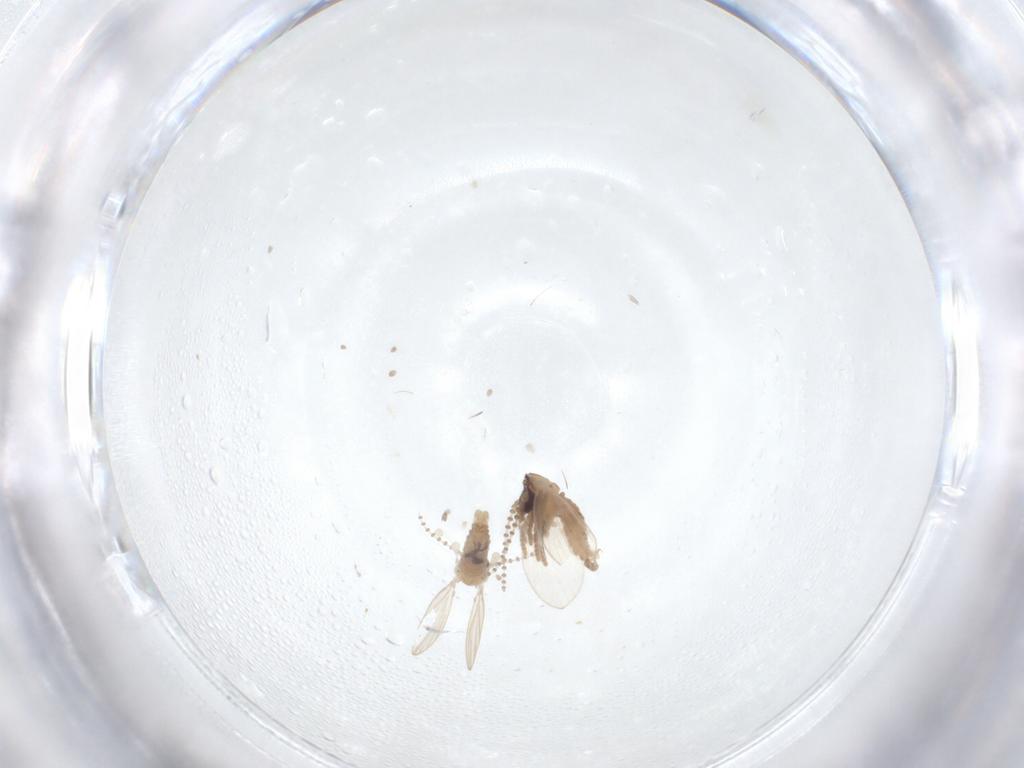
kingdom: Animalia
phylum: Arthropoda
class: Insecta
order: Diptera
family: Psychodidae
